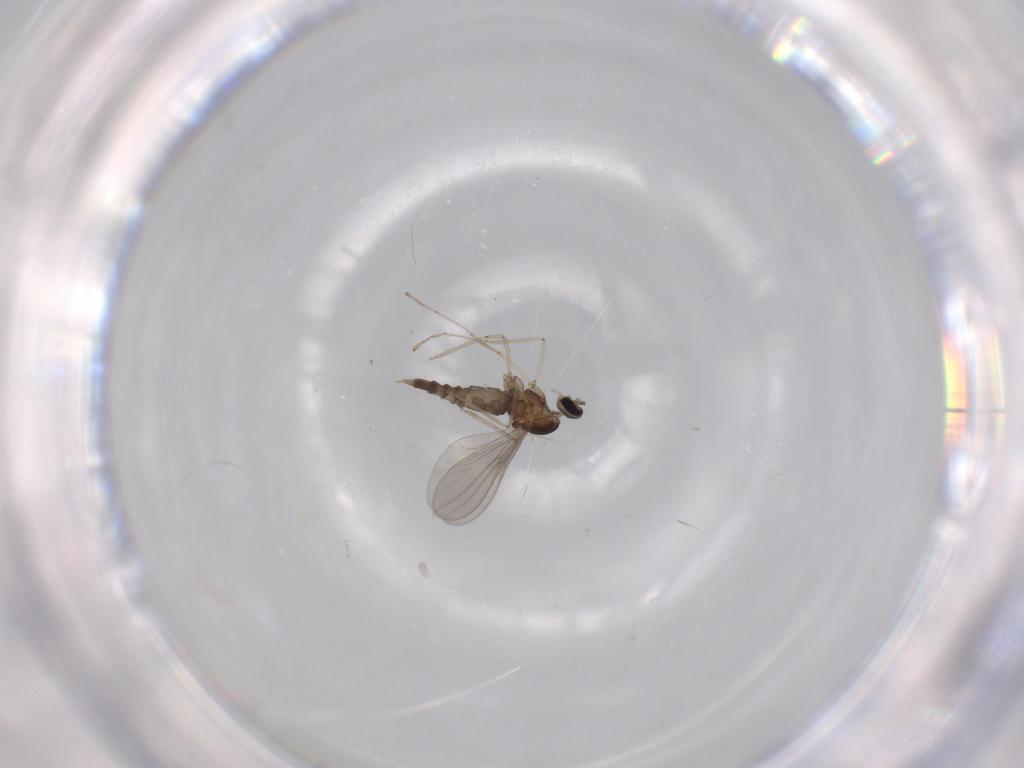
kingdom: Animalia
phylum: Arthropoda
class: Insecta
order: Diptera
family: Cecidomyiidae
